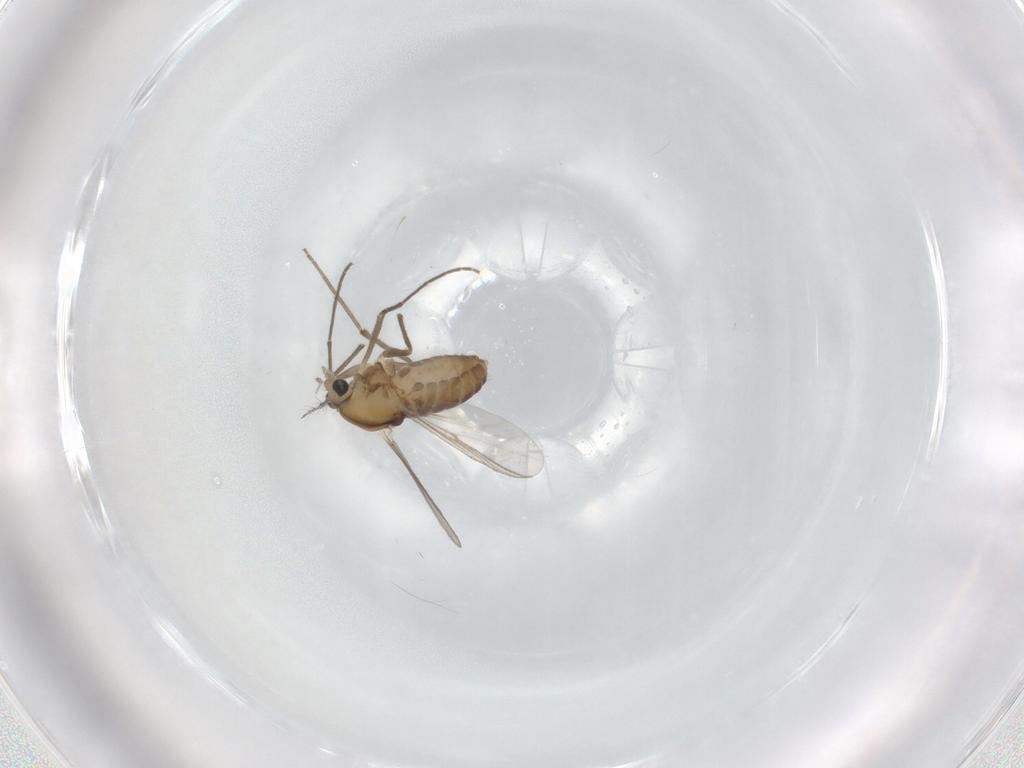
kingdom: Animalia
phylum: Arthropoda
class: Insecta
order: Diptera
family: Chironomidae
